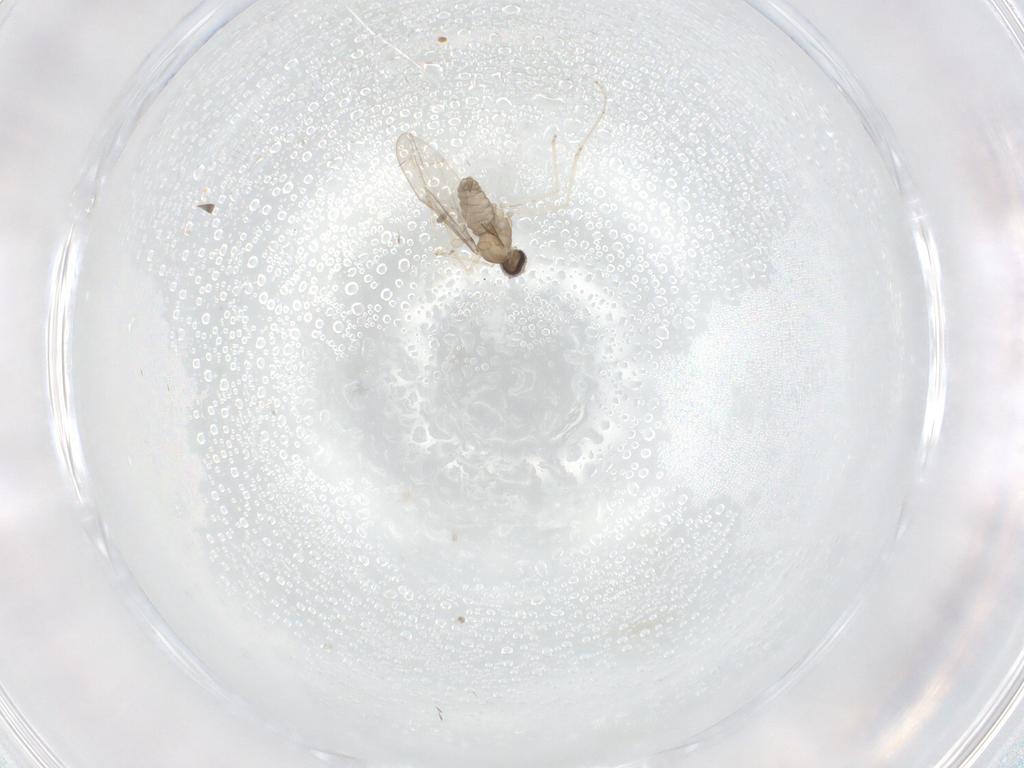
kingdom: Animalia
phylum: Arthropoda
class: Insecta
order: Diptera
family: Cecidomyiidae
